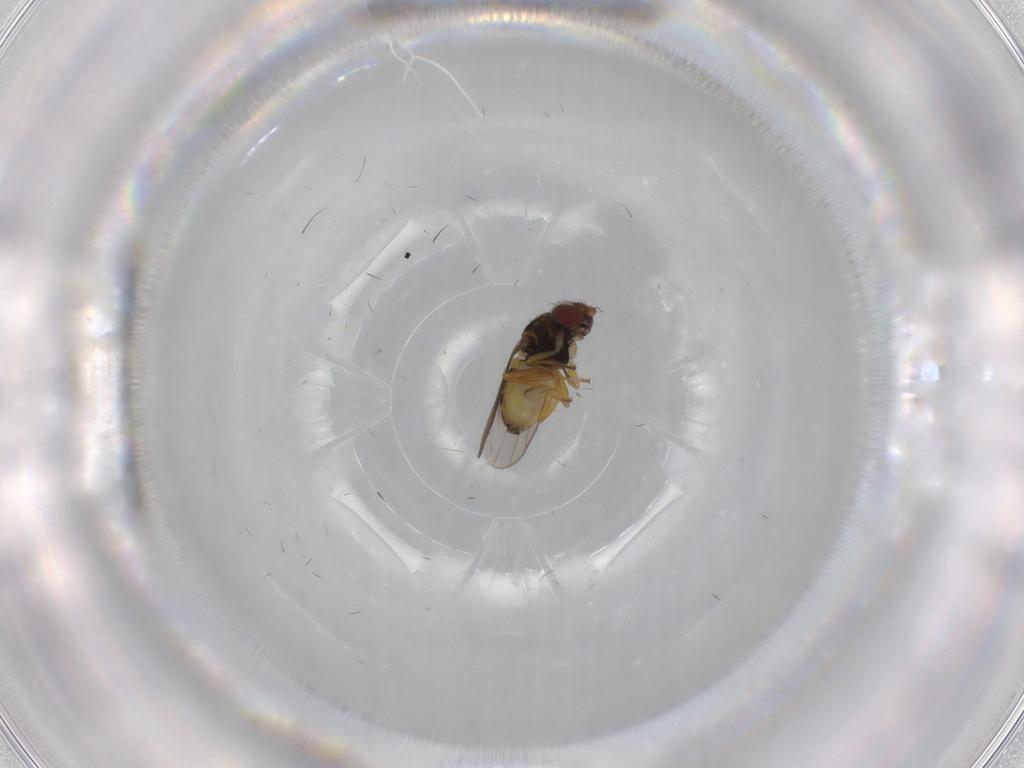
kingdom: Animalia
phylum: Arthropoda
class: Insecta
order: Diptera
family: Chloropidae
